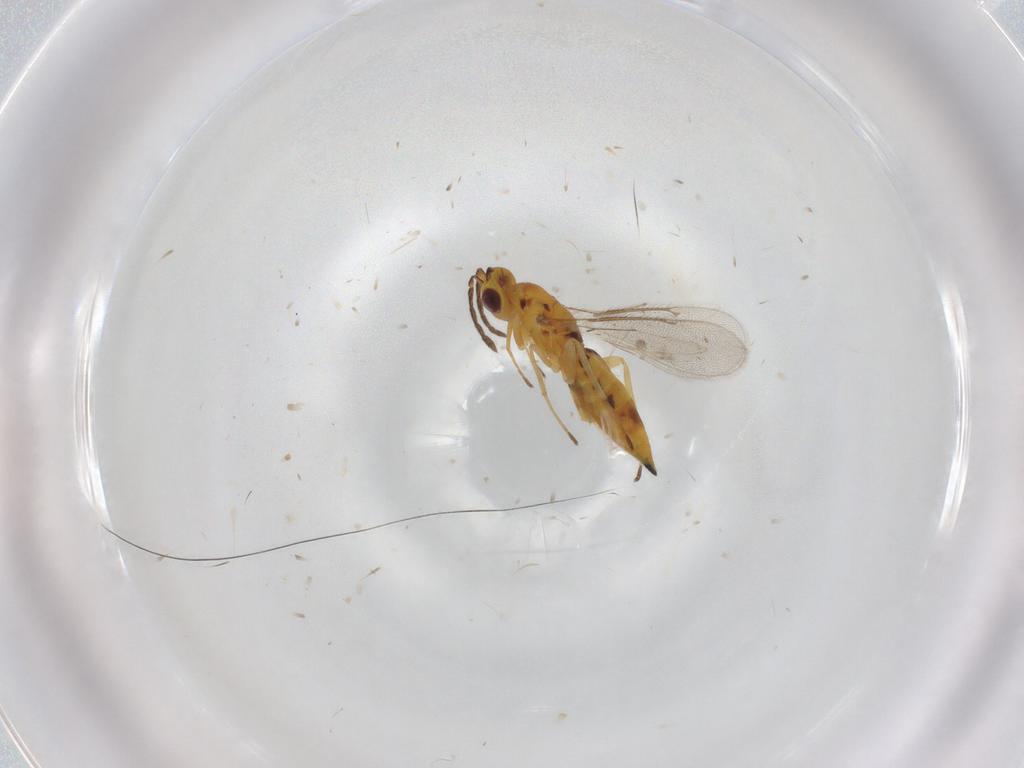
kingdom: Animalia
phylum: Arthropoda
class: Insecta
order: Hymenoptera
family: Eulophidae
